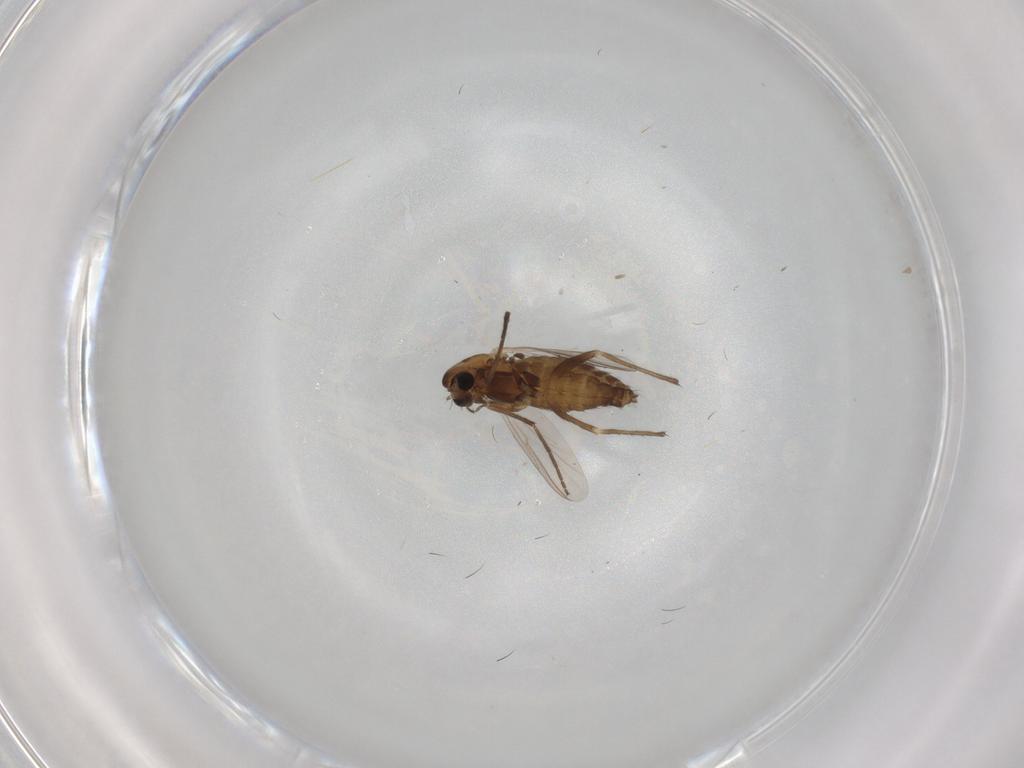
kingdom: Animalia
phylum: Arthropoda
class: Insecta
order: Diptera
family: Chironomidae
